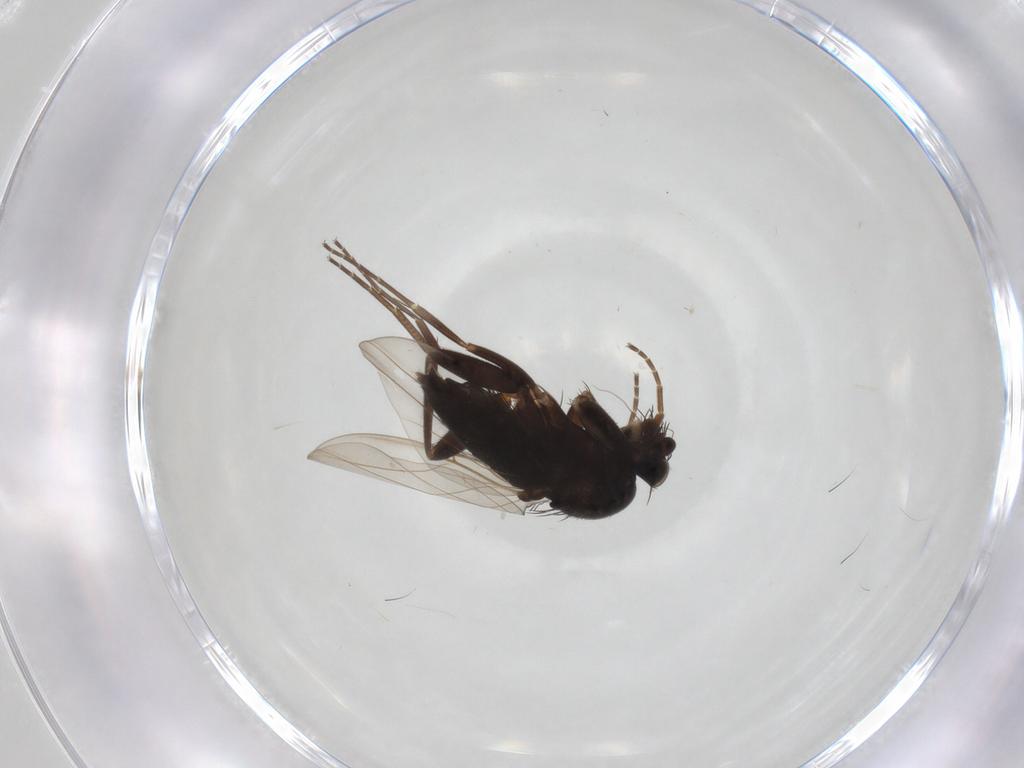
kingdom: Animalia
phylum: Arthropoda
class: Insecta
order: Diptera
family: Phoridae
